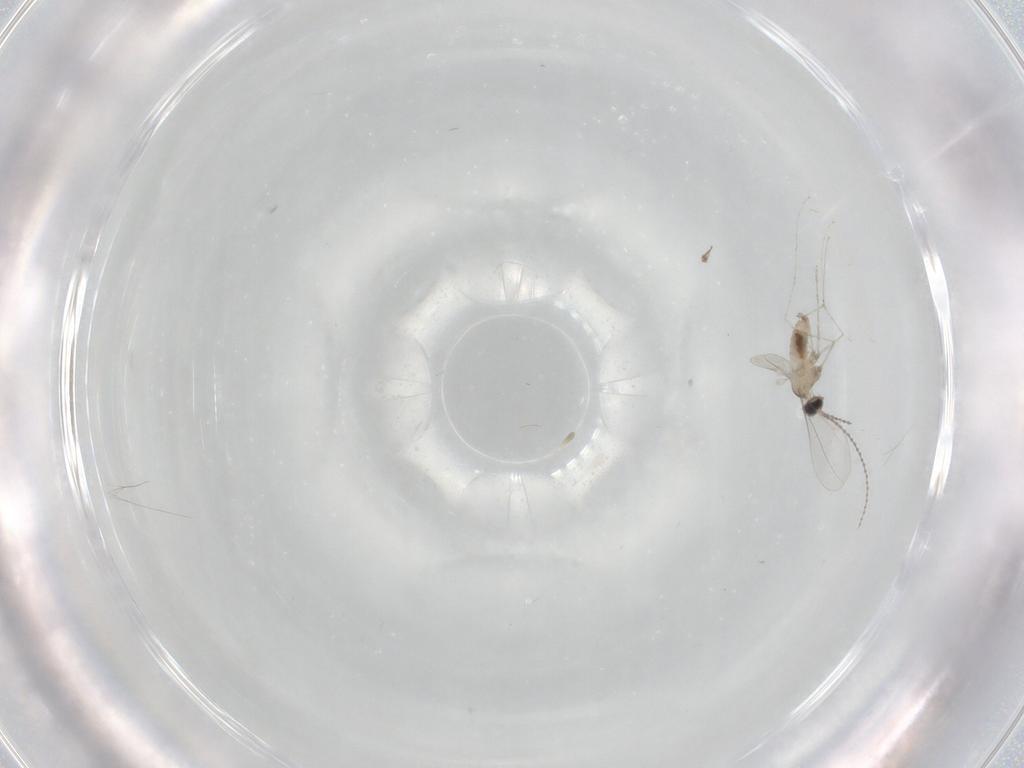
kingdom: Animalia
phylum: Arthropoda
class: Insecta
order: Diptera
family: Cecidomyiidae
